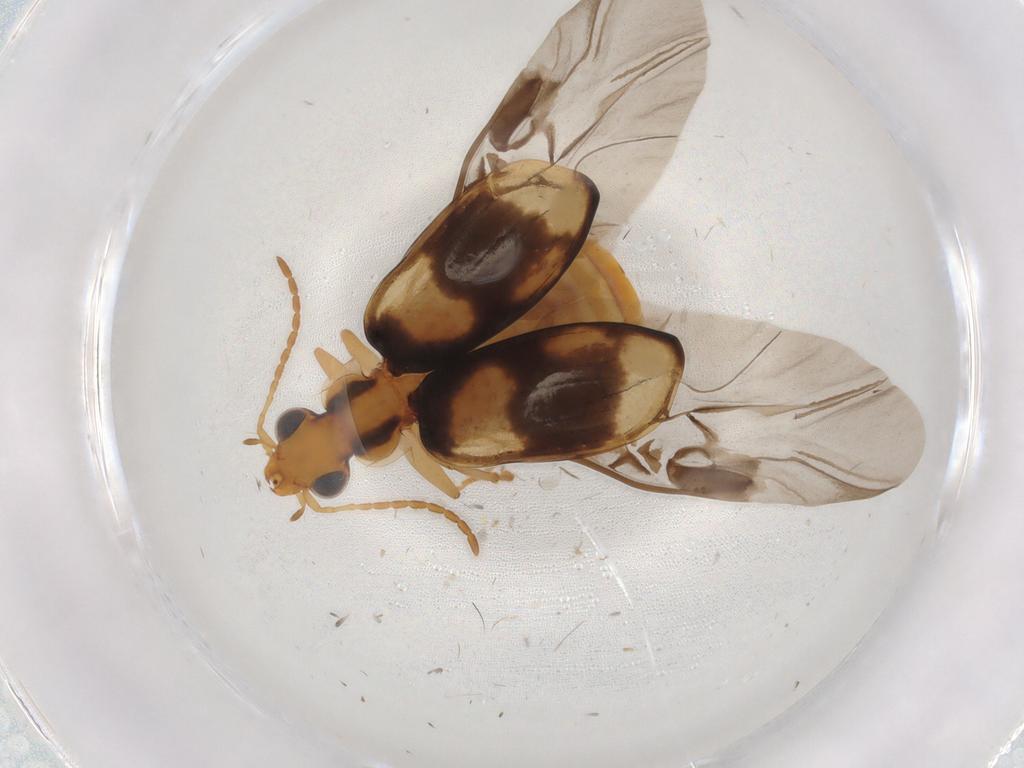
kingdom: Animalia
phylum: Arthropoda
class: Insecta
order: Coleoptera
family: Carabidae
